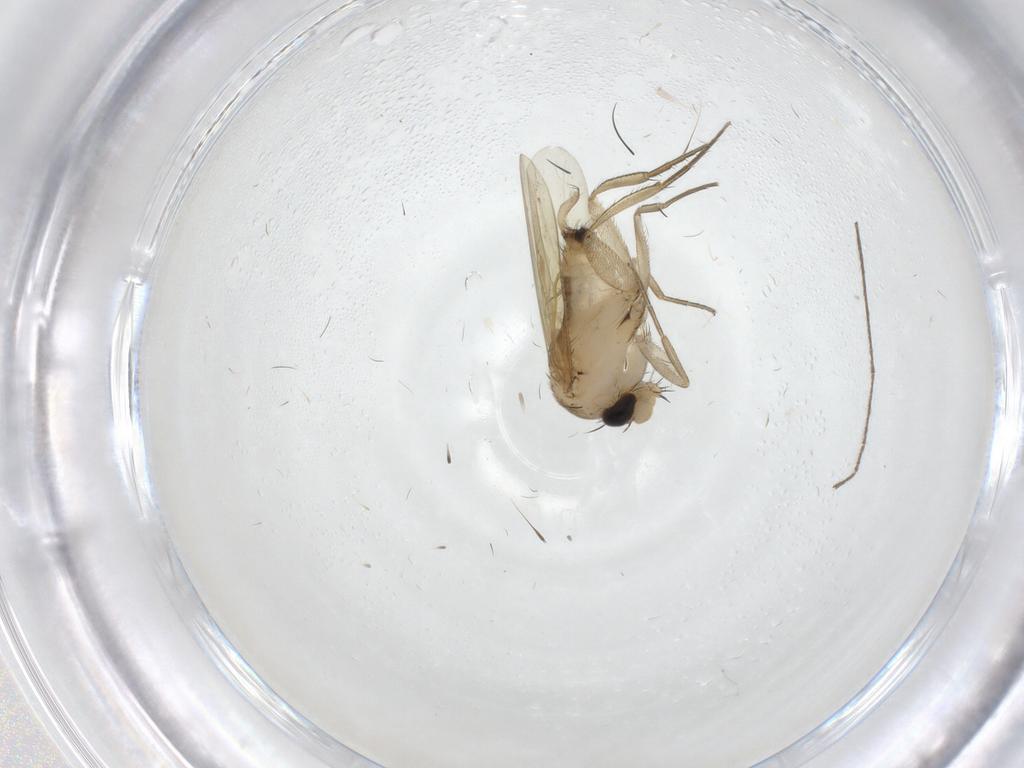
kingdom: Animalia
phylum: Arthropoda
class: Insecta
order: Diptera
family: Phoridae
